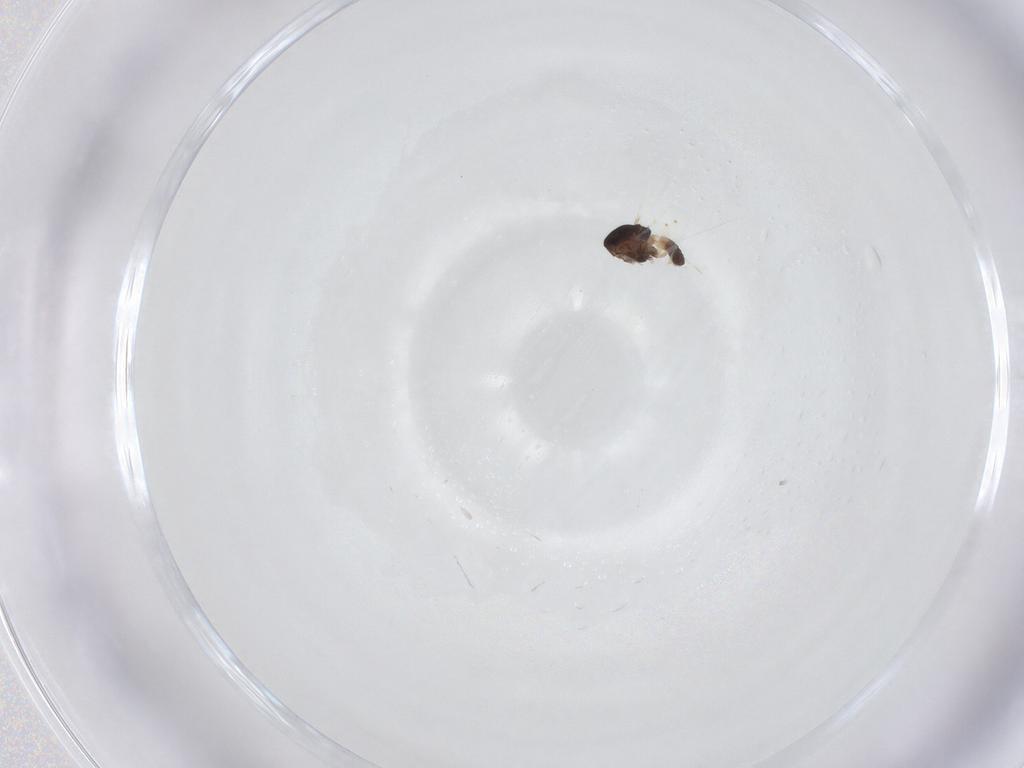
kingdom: Animalia
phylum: Arthropoda
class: Insecta
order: Diptera
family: Chironomidae
